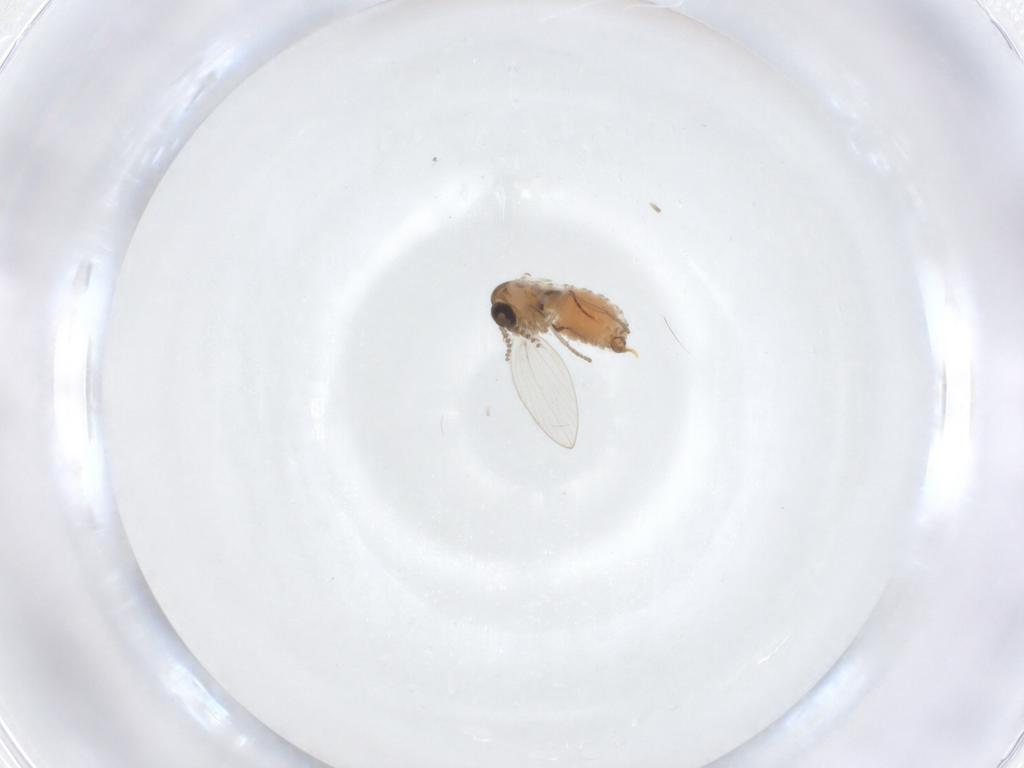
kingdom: Animalia
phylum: Arthropoda
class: Insecta
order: Diptera
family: Psychodidae
